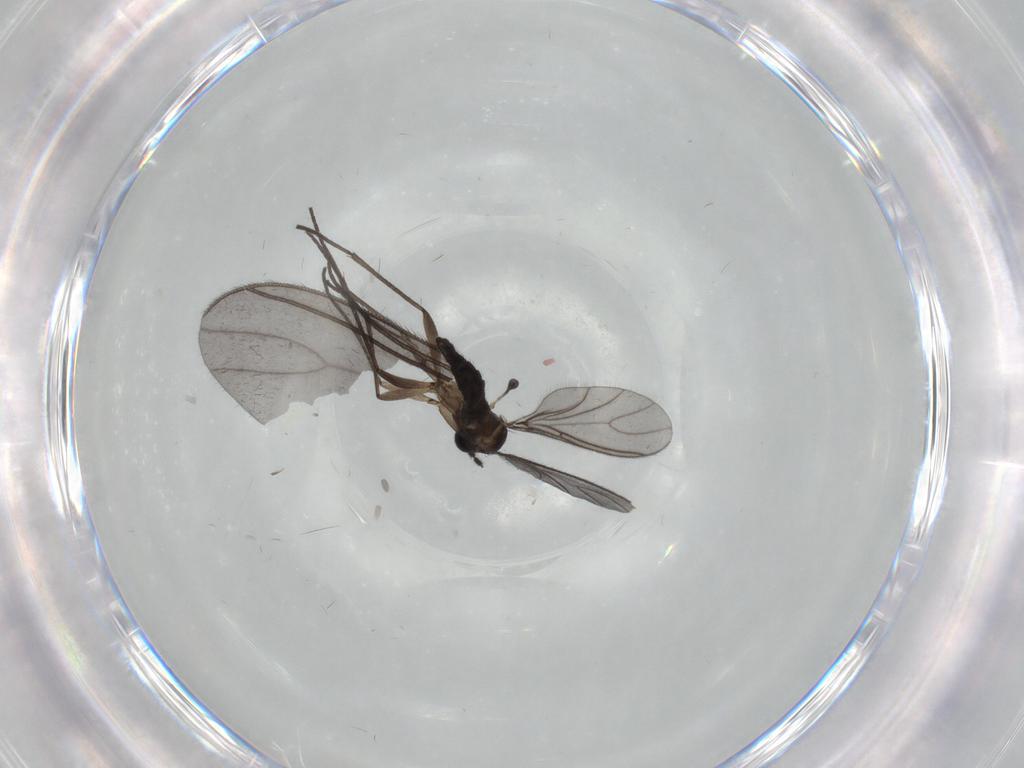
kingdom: Animalia
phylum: Arthropoda
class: Insecta
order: Diptera
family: Sciaridae
